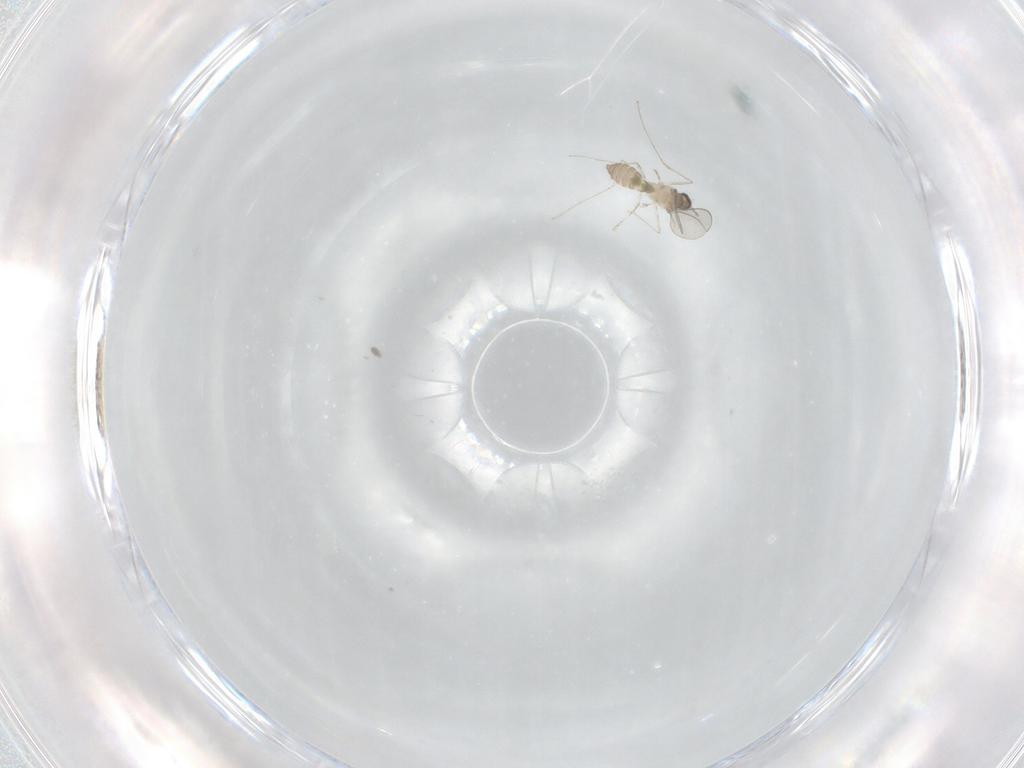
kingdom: Animalia
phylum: Arthropoda
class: Insecta
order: Diptera
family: Cecidomyiidae
